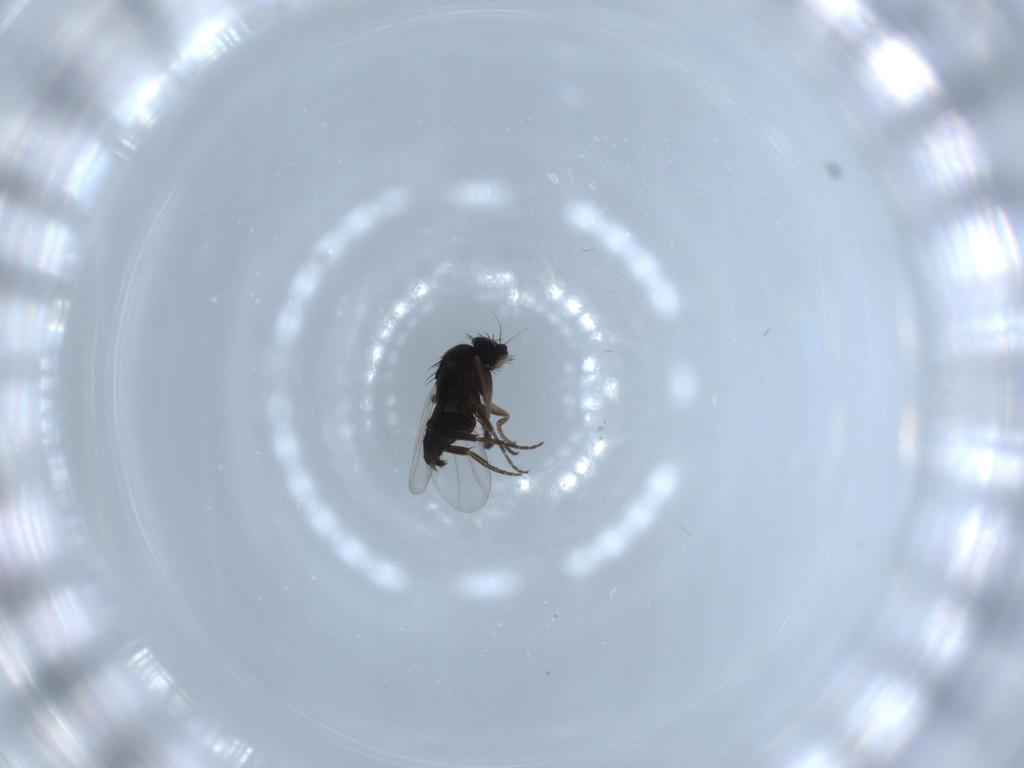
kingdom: Animalia
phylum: Arthropoda
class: Insecta
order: Diptera
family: Phoridae
